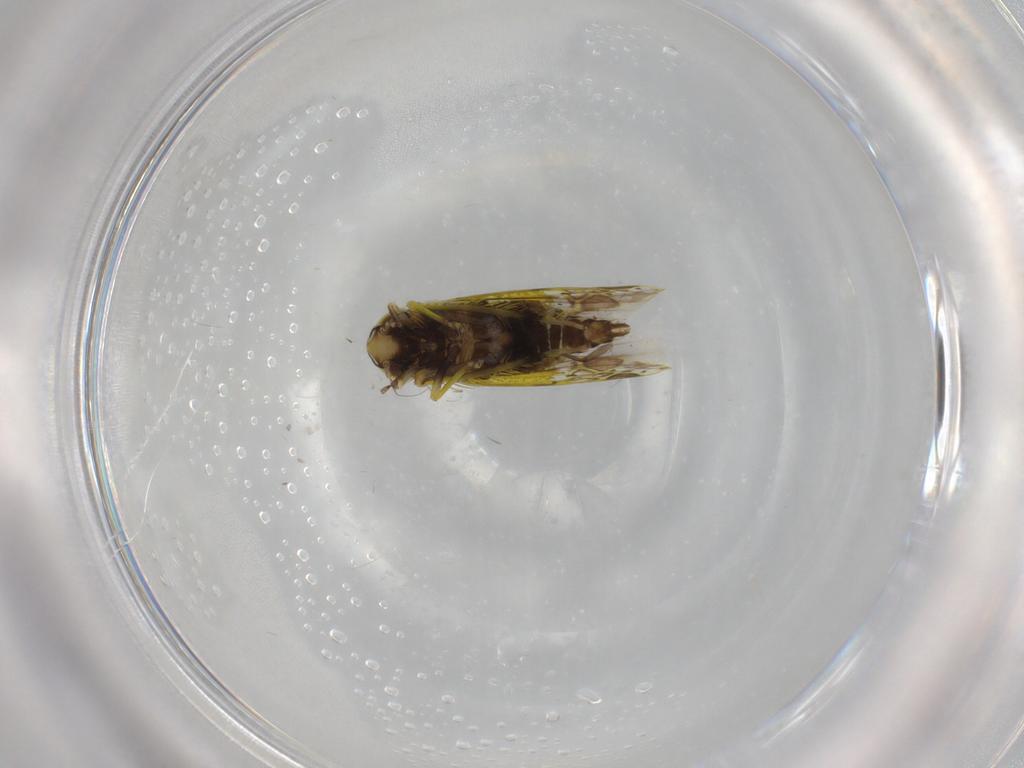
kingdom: Animalia
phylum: Arthropoda
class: Insecta
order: Hemiptera
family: Cicadellidae
